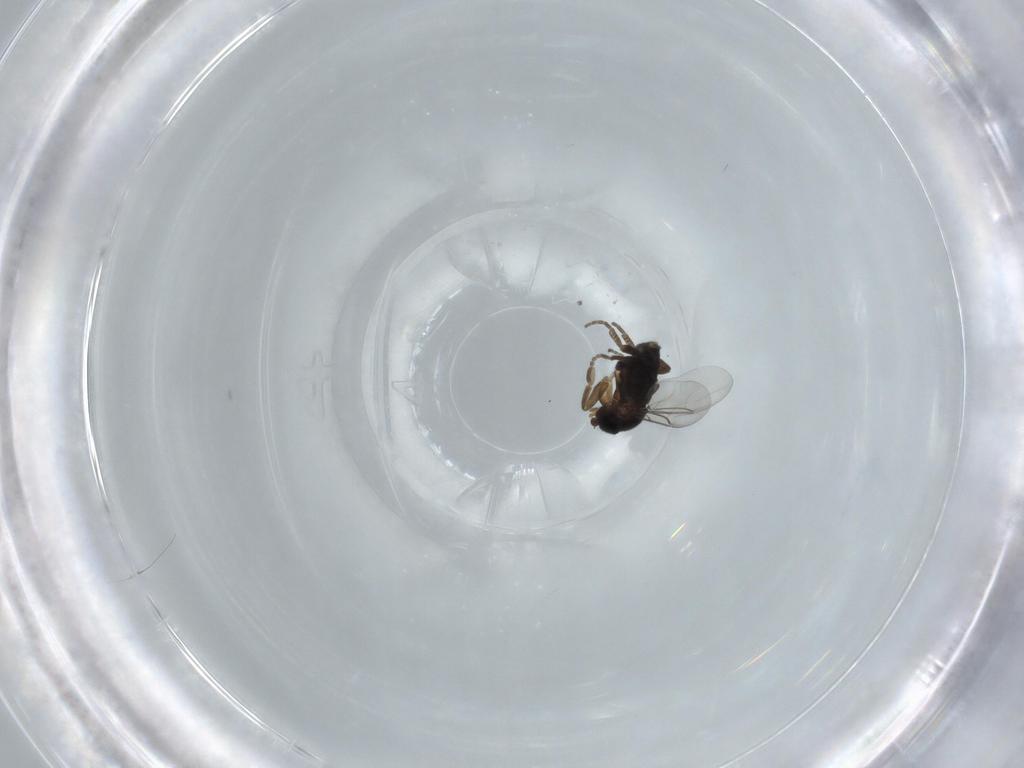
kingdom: Animalia
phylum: Arthropoda
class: Insecta
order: Diptera
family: Phoridae
